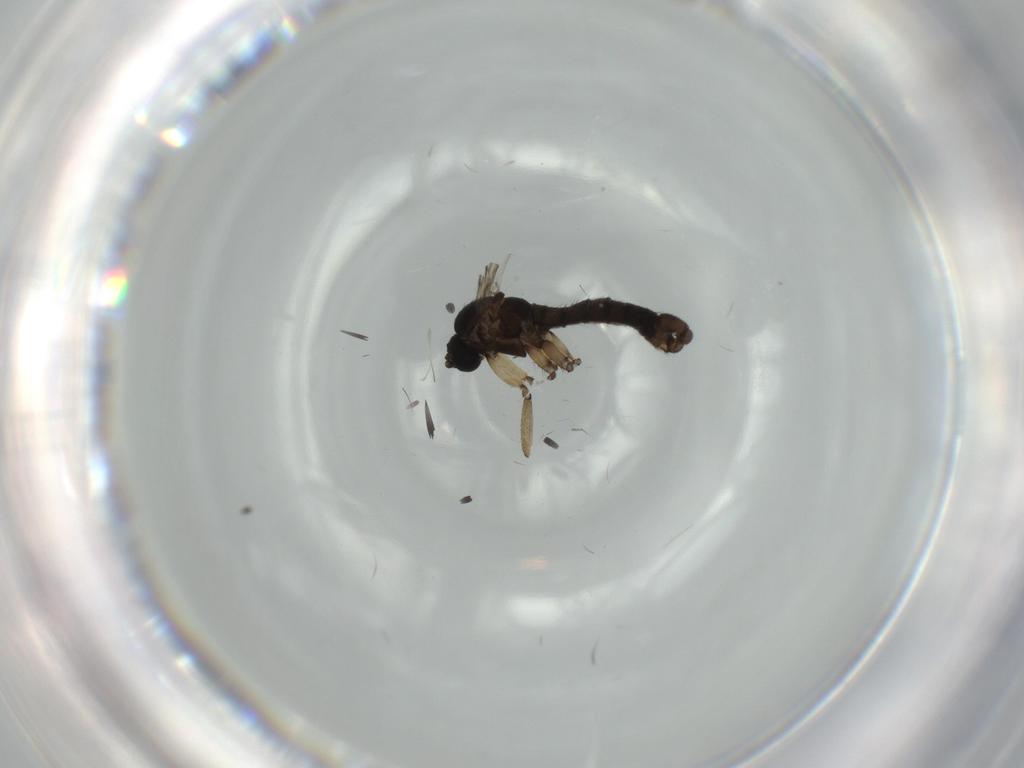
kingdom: Animalia
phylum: Arthropoda
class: Insecta
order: Diptera
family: Sciaridae
